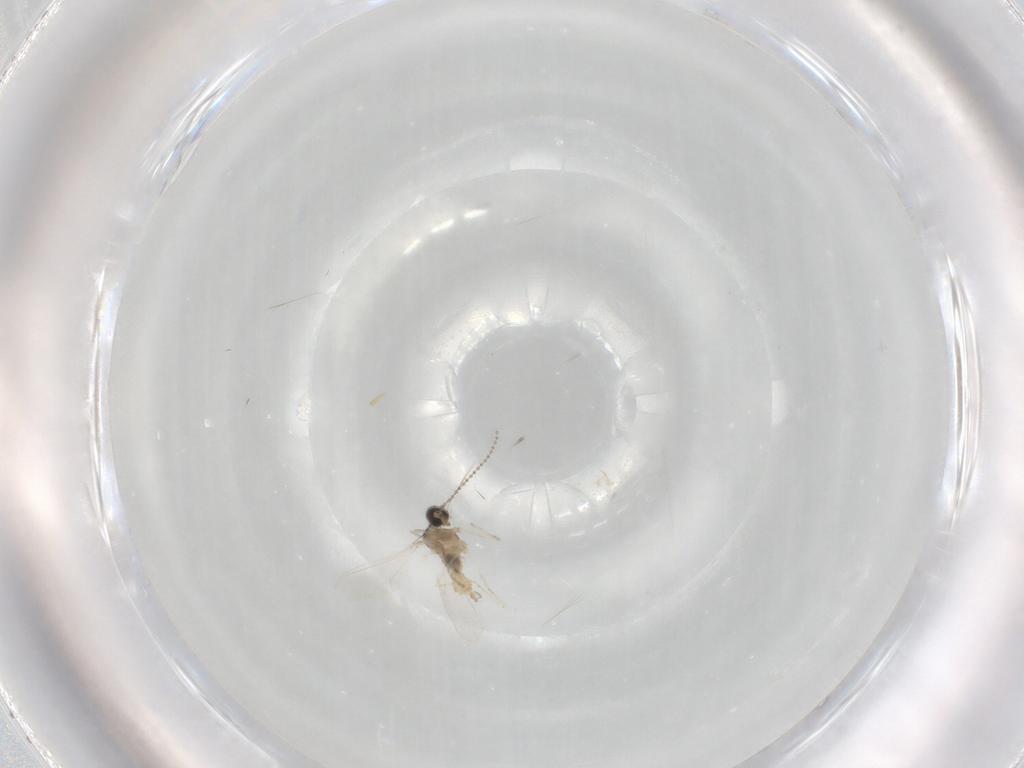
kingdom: Animalia
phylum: Arthropoda
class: Insecta
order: Diptera
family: Cecidomyiidae
